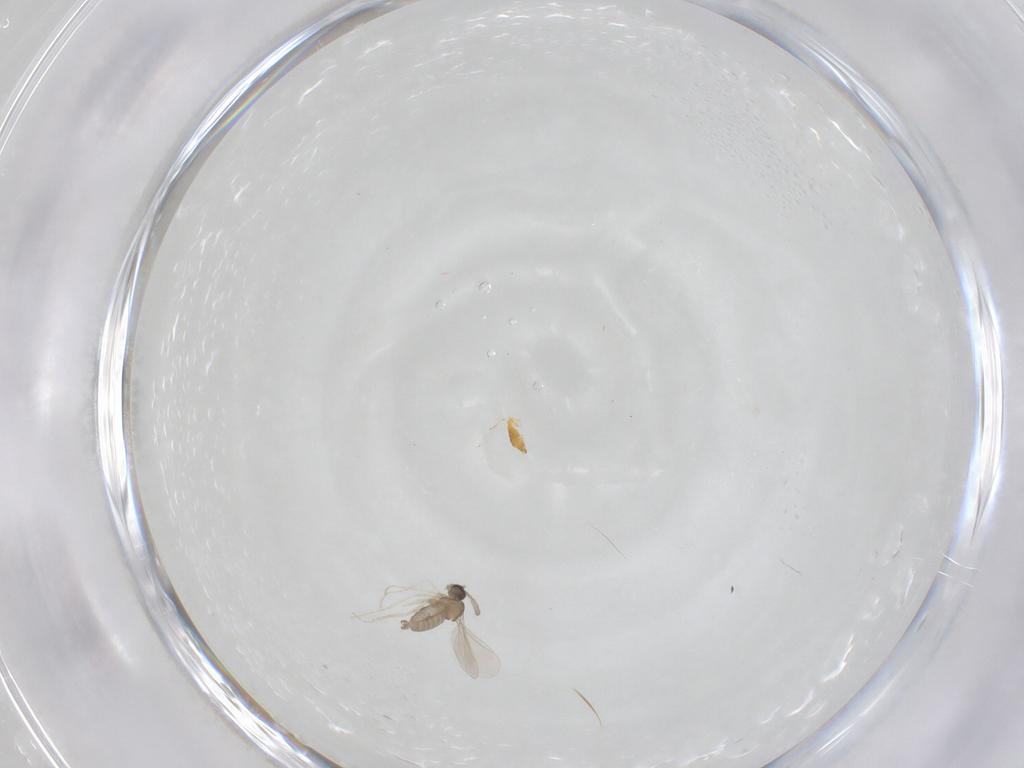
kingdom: Animalia
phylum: Arthropoda
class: Insecta
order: Diptera
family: Cecidomyiidae
